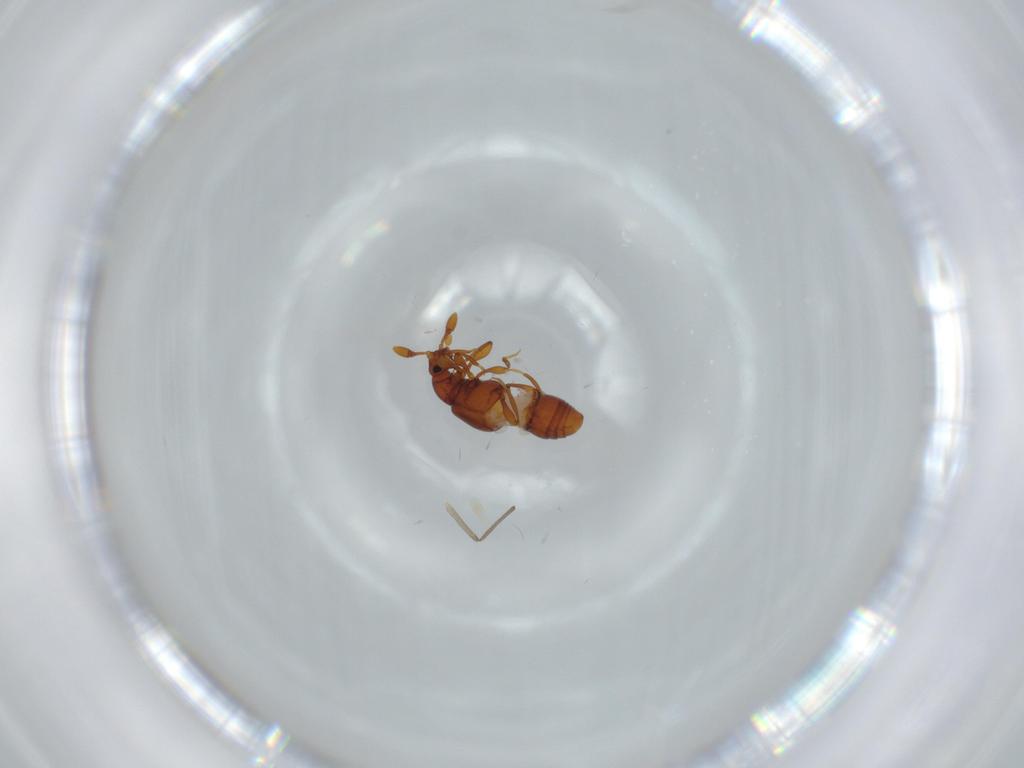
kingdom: Animalia
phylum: Arthropoda
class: Insecta
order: Coleoptera
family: Staphylinidae
